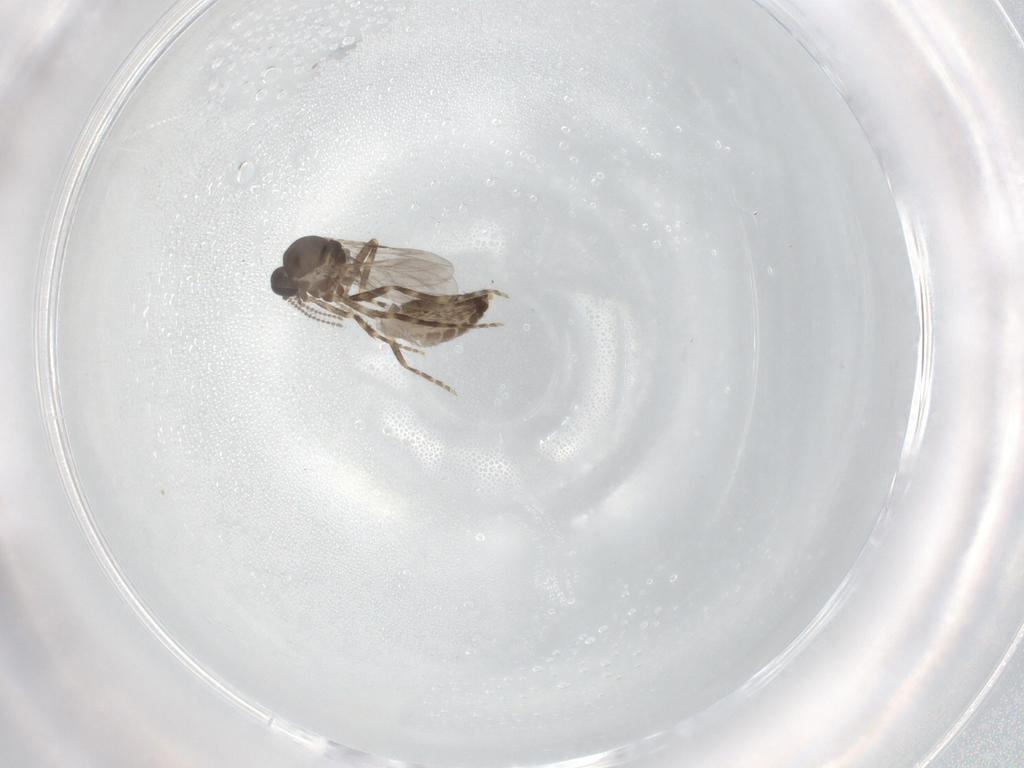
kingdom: Animalia
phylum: Arthropoda
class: Insecta
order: Diptera
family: Ceratopogonidae
